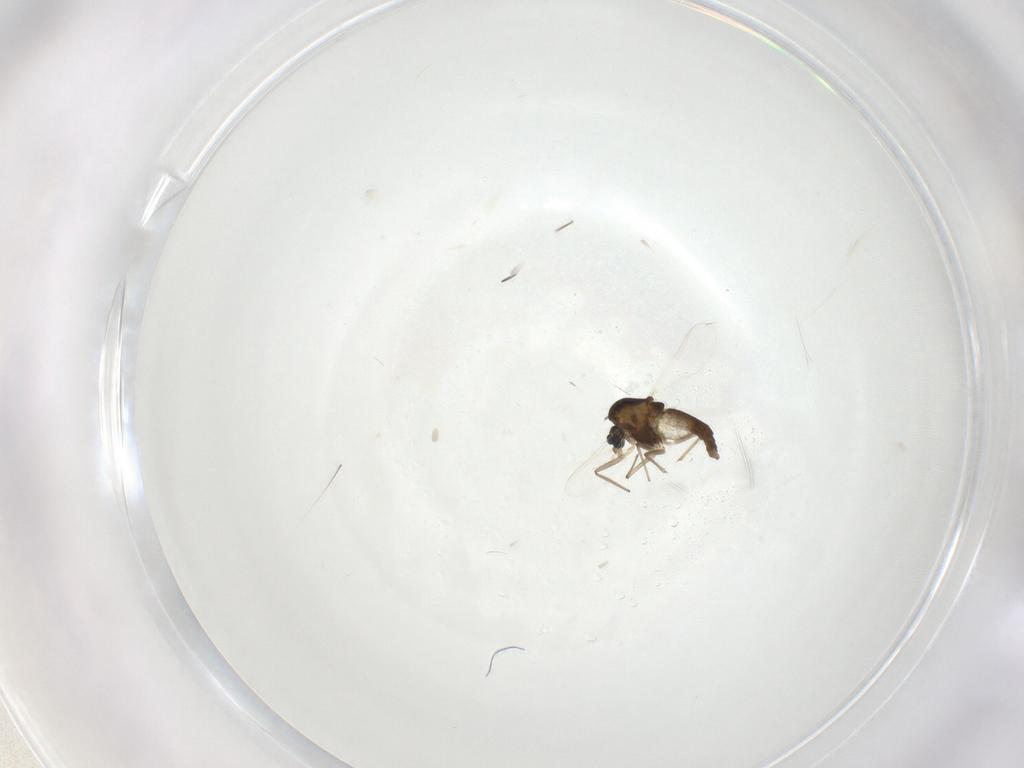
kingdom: Animalia
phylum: Arthropoda
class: Insecta
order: Diptera
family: Chironomidae
